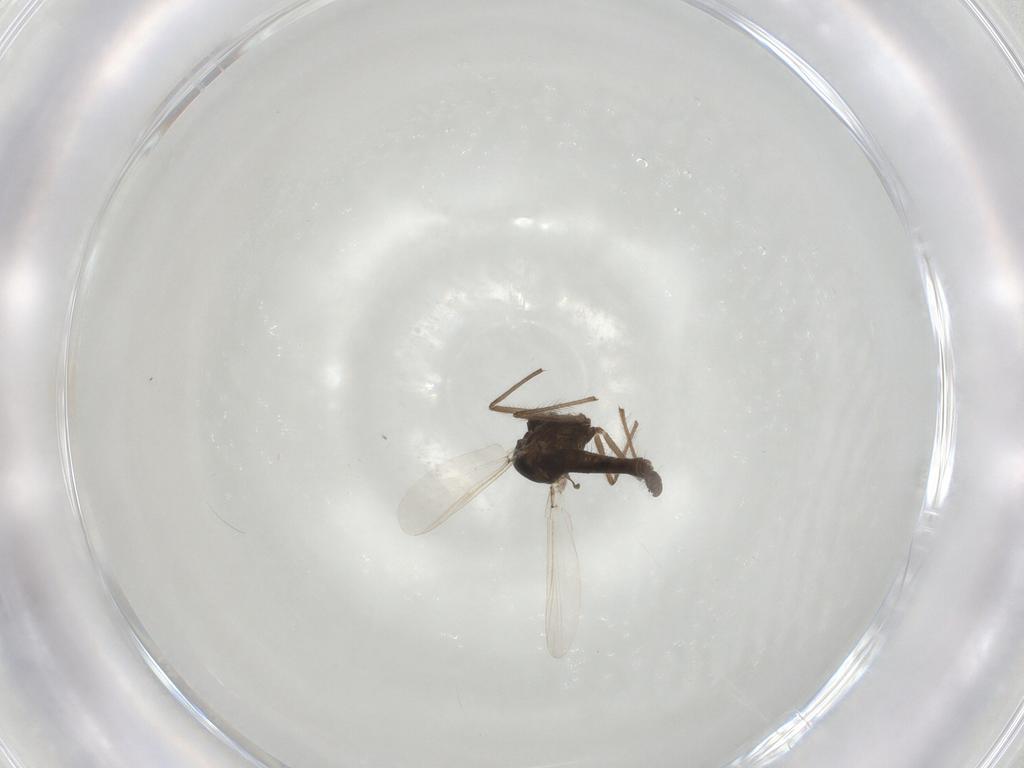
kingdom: Animalia
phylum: Arthropoda
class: Insecta
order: Diptera
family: Chironomidae
